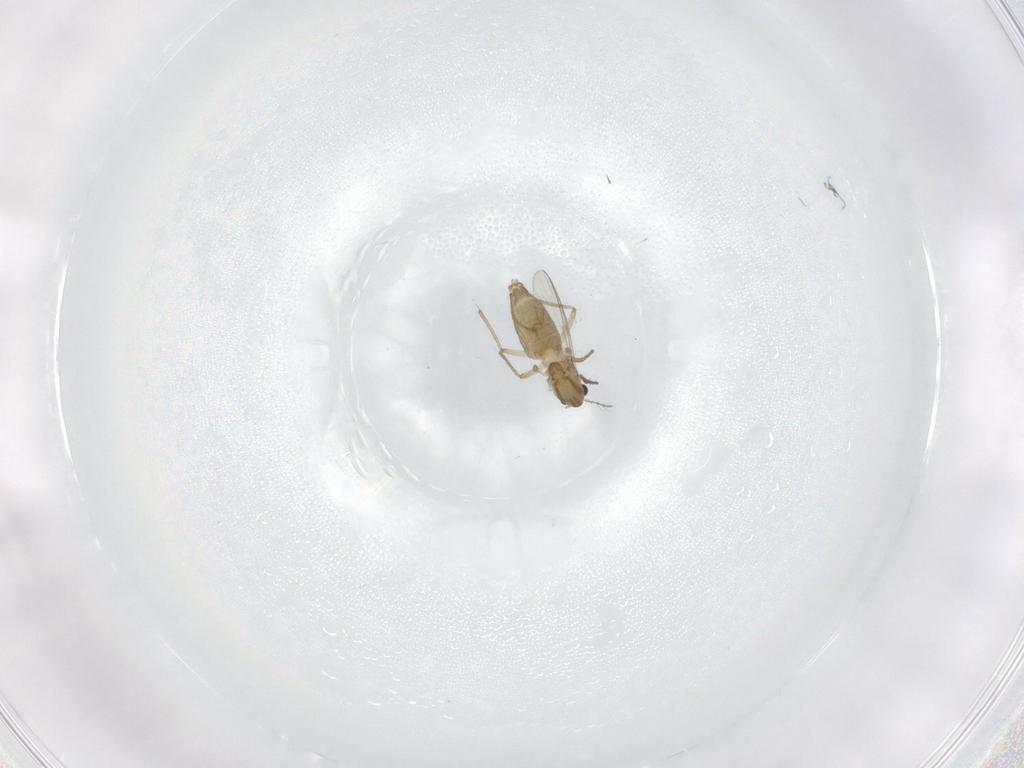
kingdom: Animalia
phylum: Arthropoda
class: Insecta
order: Diptera
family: Chironomidae
